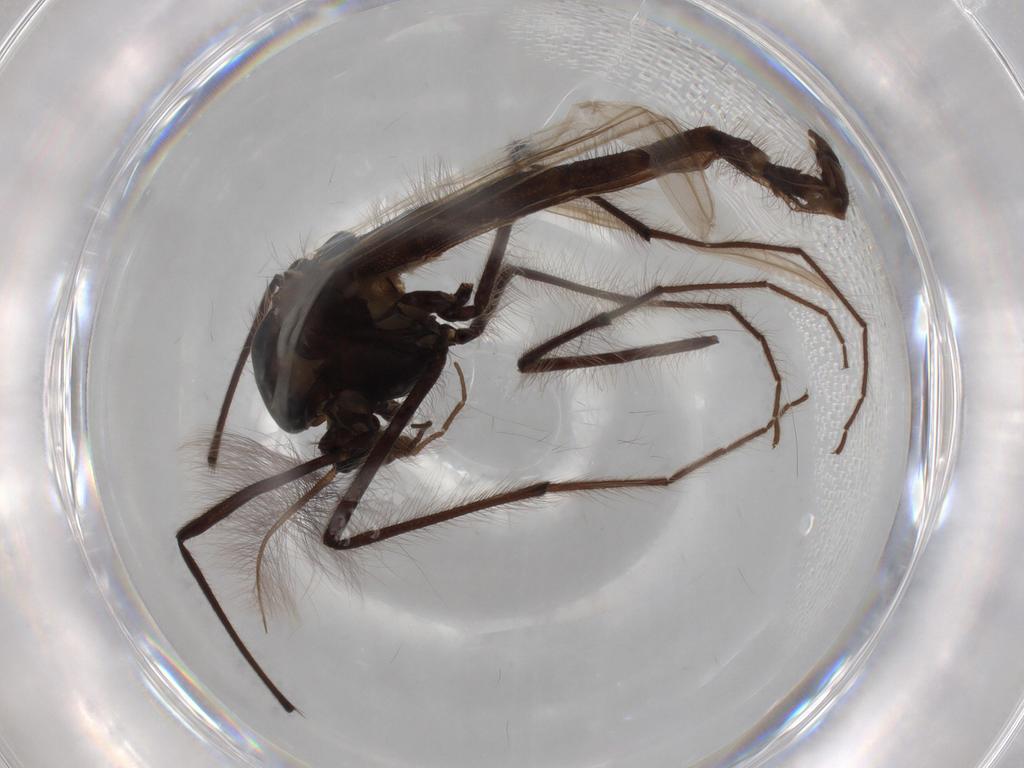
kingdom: Animalia
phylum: Arthropoda
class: Insecta
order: Diptera
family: Chironomidae
